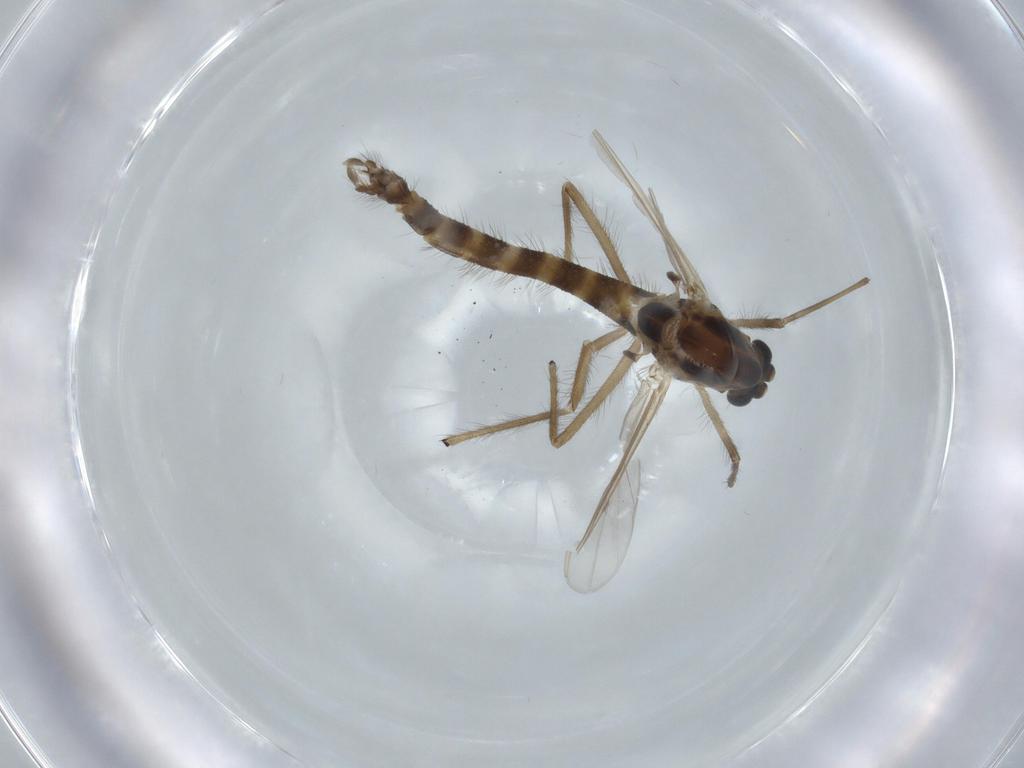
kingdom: Animalia
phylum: Arthropoda
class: Insecta
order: Diptera
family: Chironomidae
